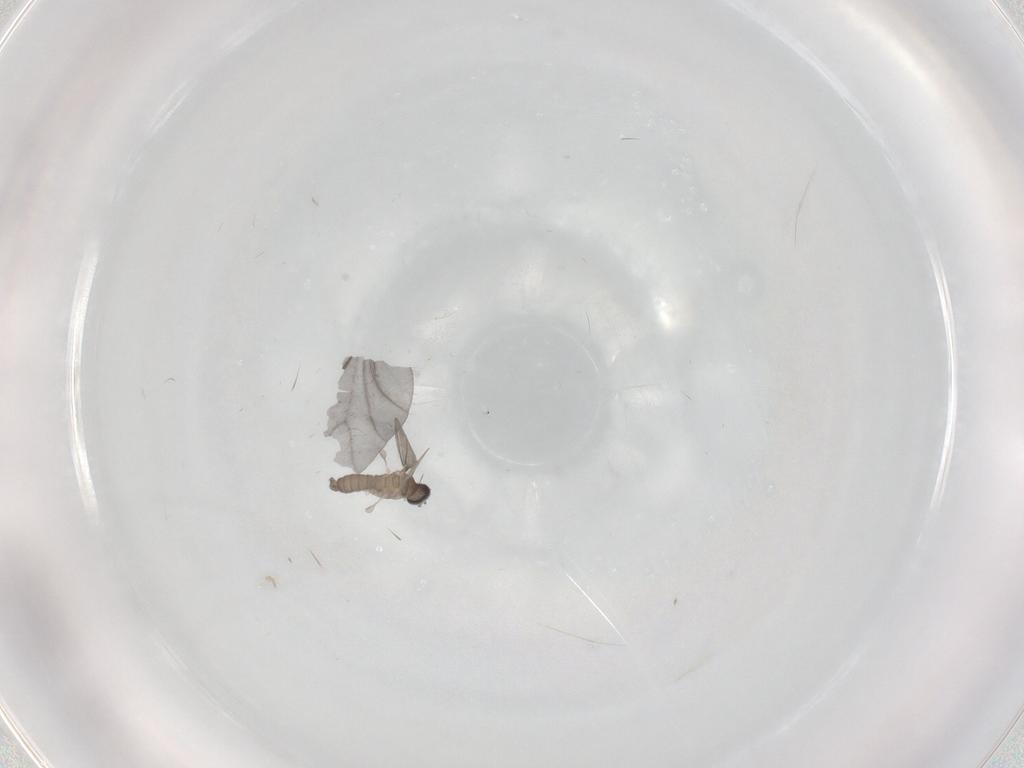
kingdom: Animalia
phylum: Arthropoda
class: Insecta
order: Diptera
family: Cecidomyiidae
